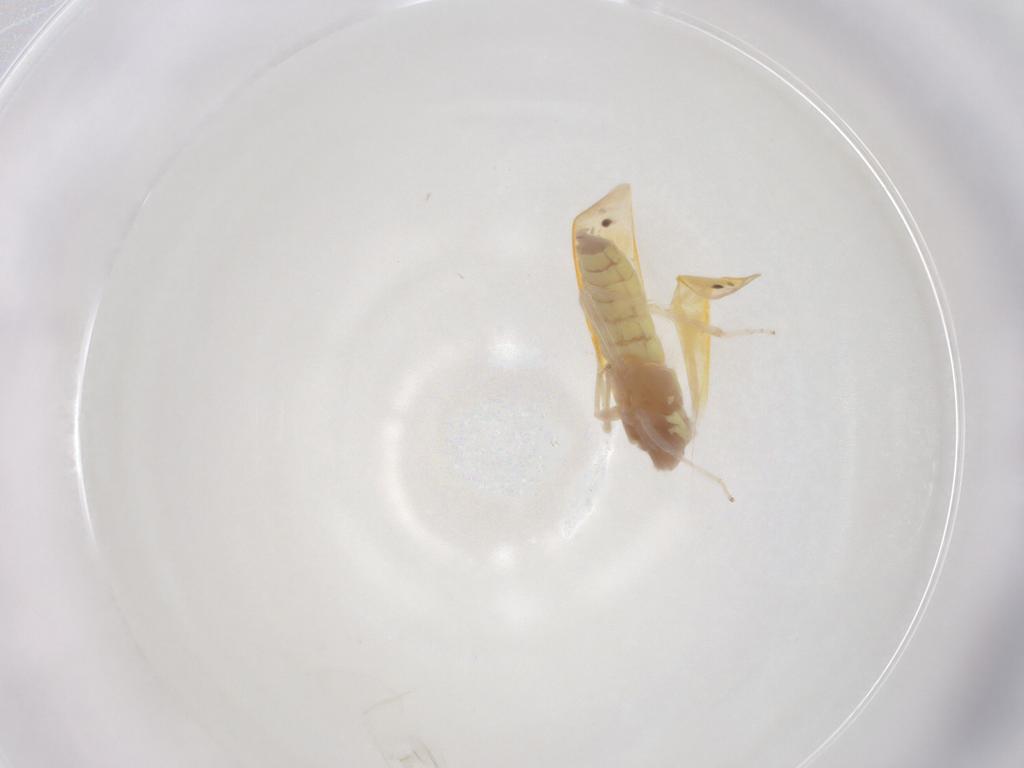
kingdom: Animalia
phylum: Arthropoda
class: Insecta
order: Hemiptera
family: Cicadellidae
